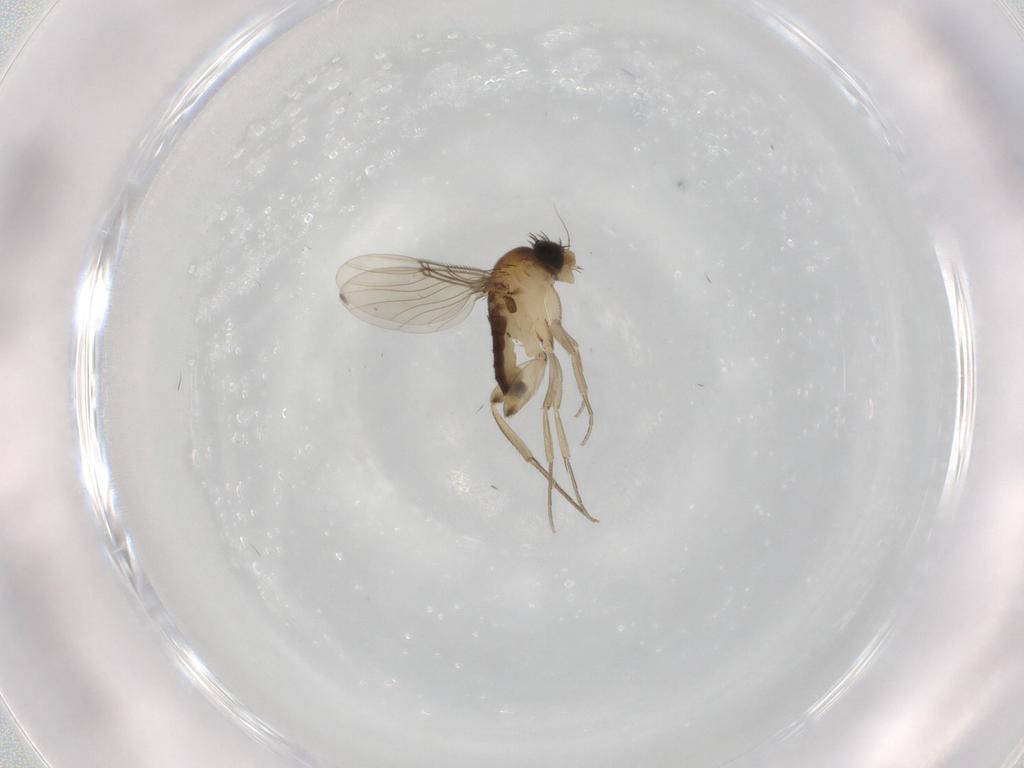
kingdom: Animalia
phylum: Arthropoda
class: Insecta
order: Diptera
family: Phoridae
